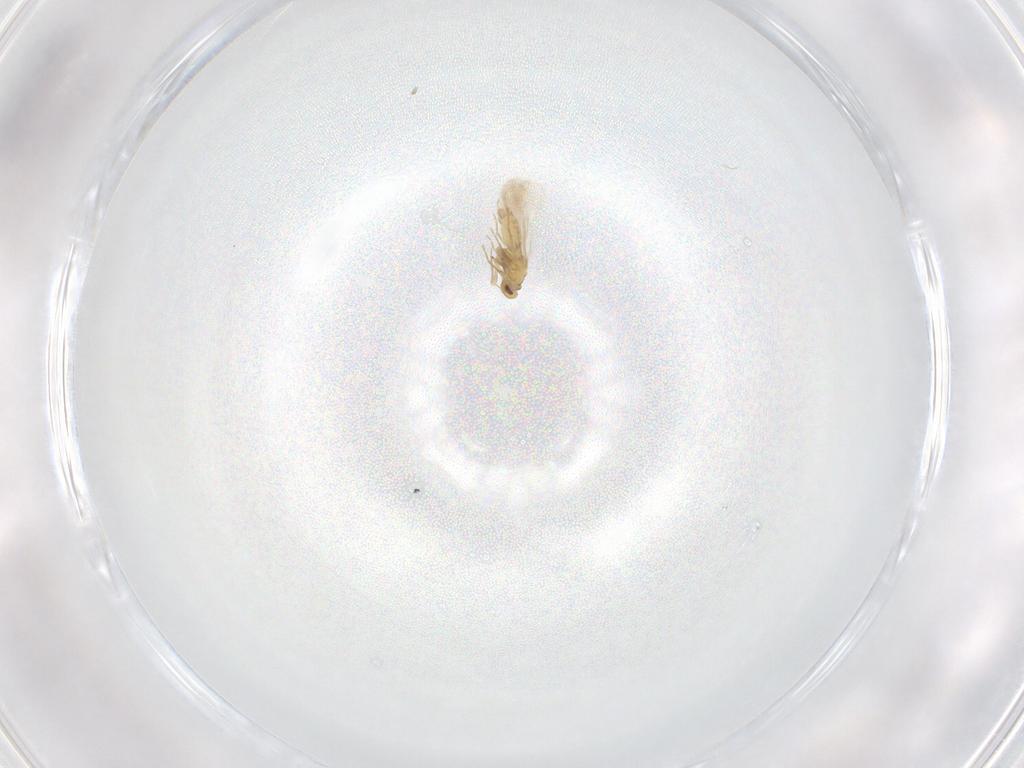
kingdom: Animalia
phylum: Arthropoda
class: Insecta
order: Hemiptera
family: Aleyrodidae
